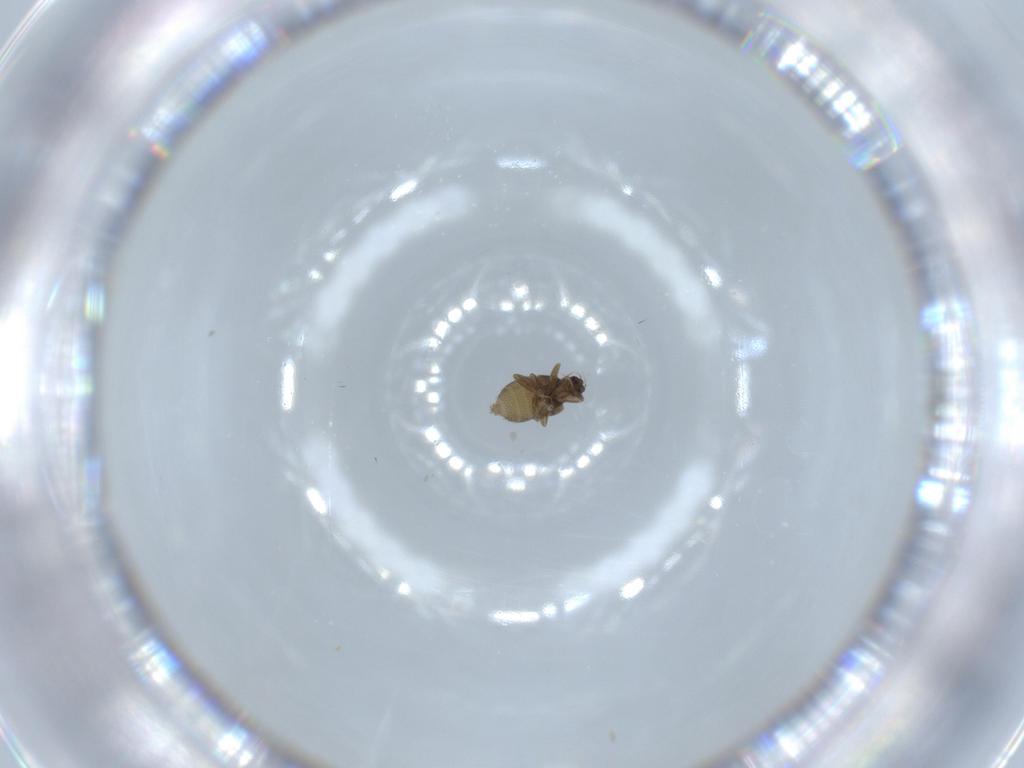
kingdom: Animalia
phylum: Arthropoda
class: Insecta
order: Diptera
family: Phoridae
